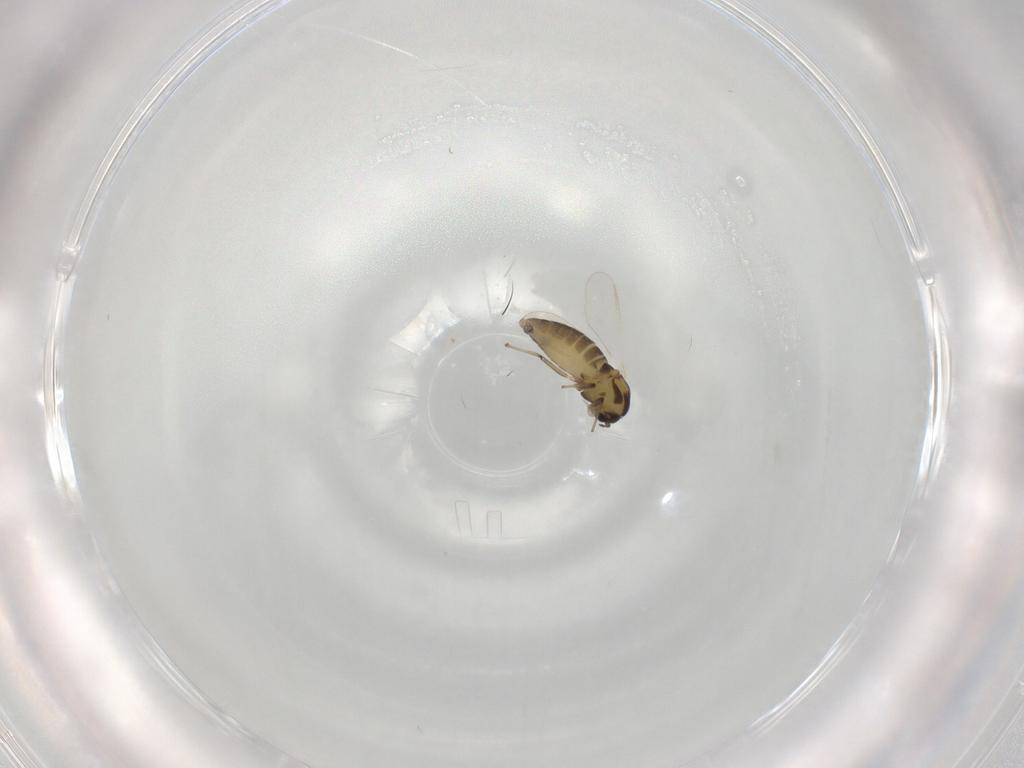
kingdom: Animalia
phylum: Arthropoda
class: Insecta
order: Diptera
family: Chironomidae
